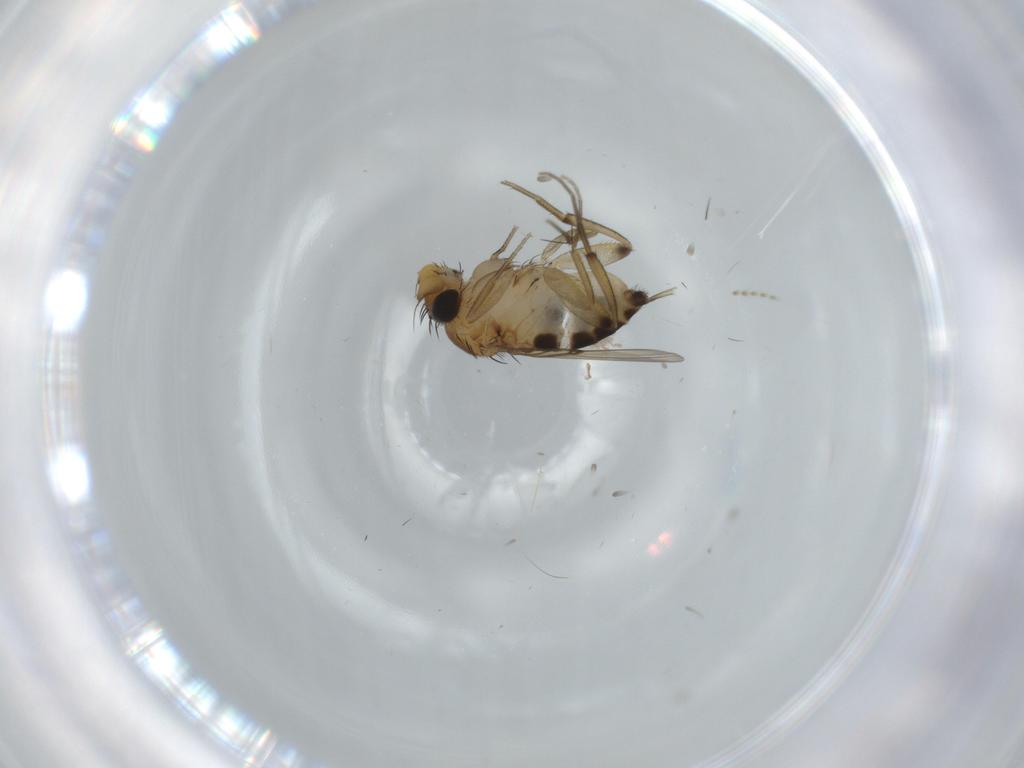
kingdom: Animalia
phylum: Arthropoda
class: Insecta
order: Diptera
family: Cecidomyiidae
